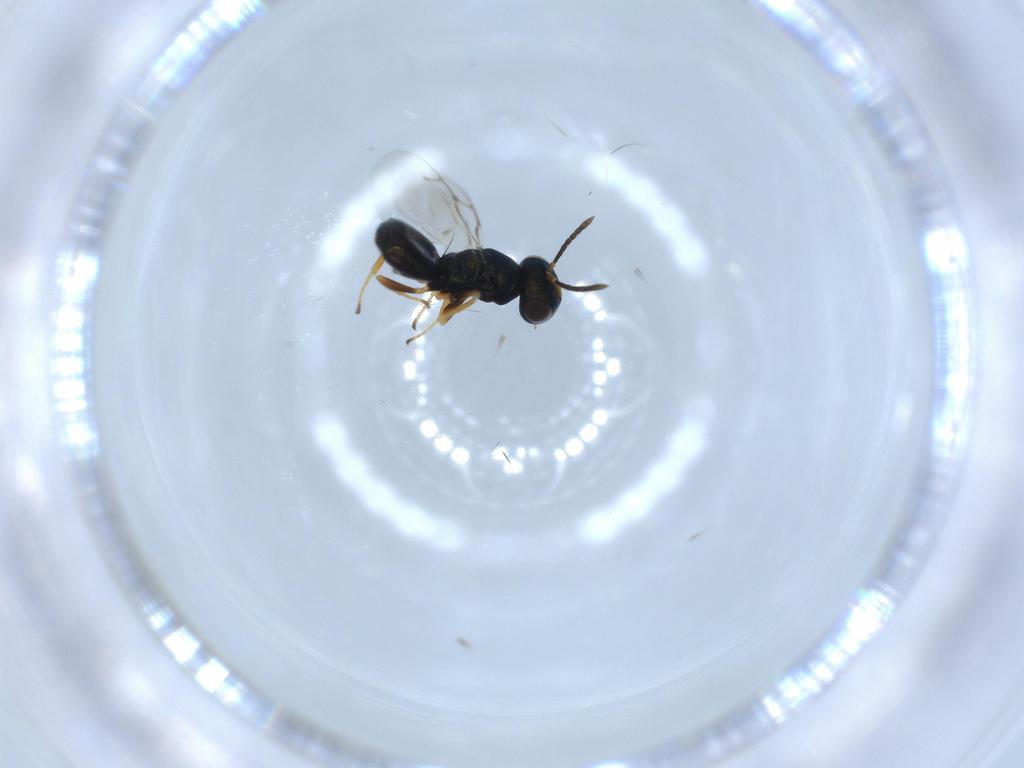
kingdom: Animalia
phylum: Arthropoda
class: Insecta
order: Hymenoptera
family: Pteromalidae
